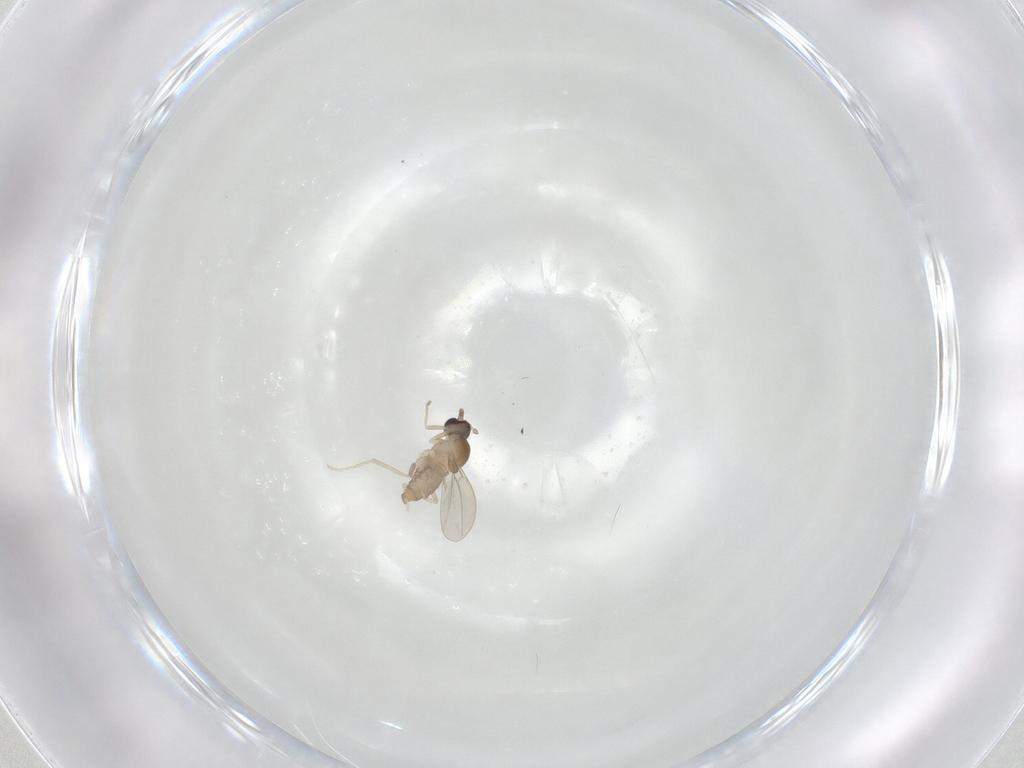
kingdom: Animalia
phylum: Arthropoda
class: Insecta
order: Diptera
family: Cecidomyiidae
